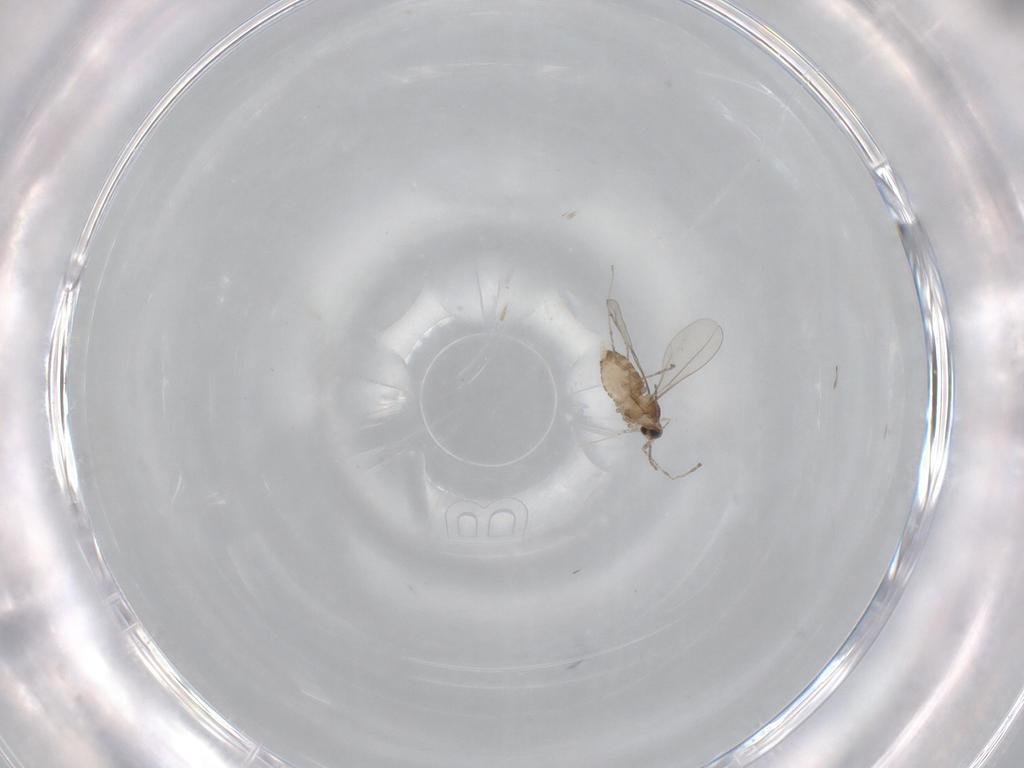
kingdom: Animalia
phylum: Arthropoda
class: Insecta
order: Diptera
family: Cecidomyiidae
